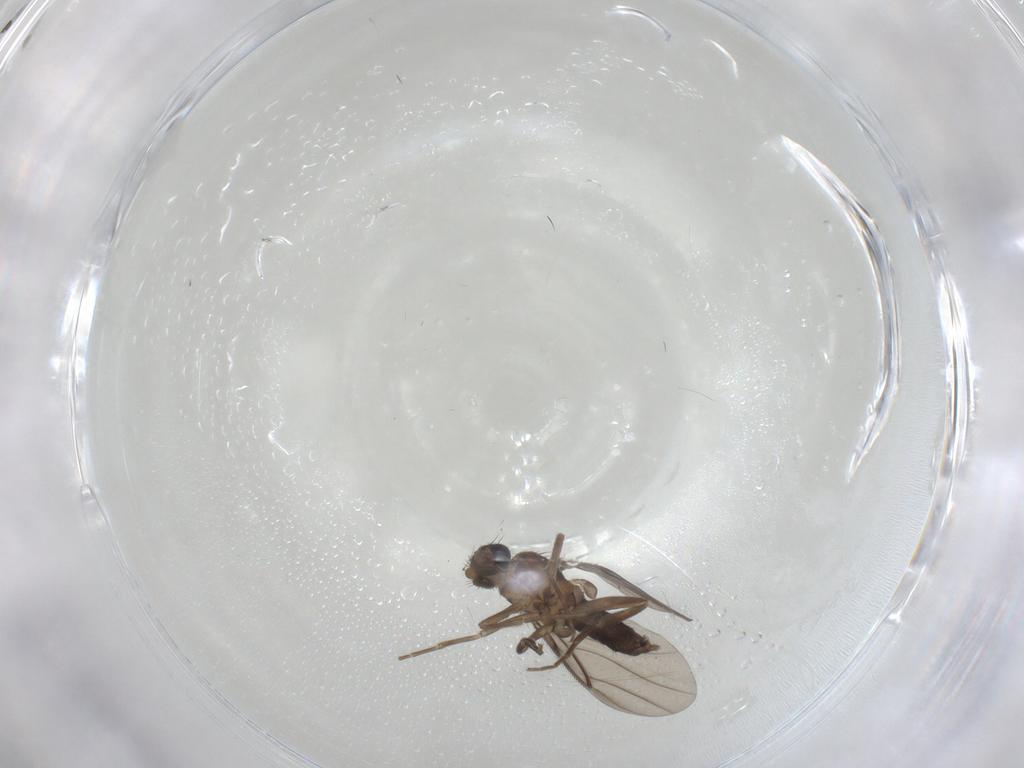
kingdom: Animalia
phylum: Arthropoda
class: Insecta
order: Diptera
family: Cecidomyiidae
